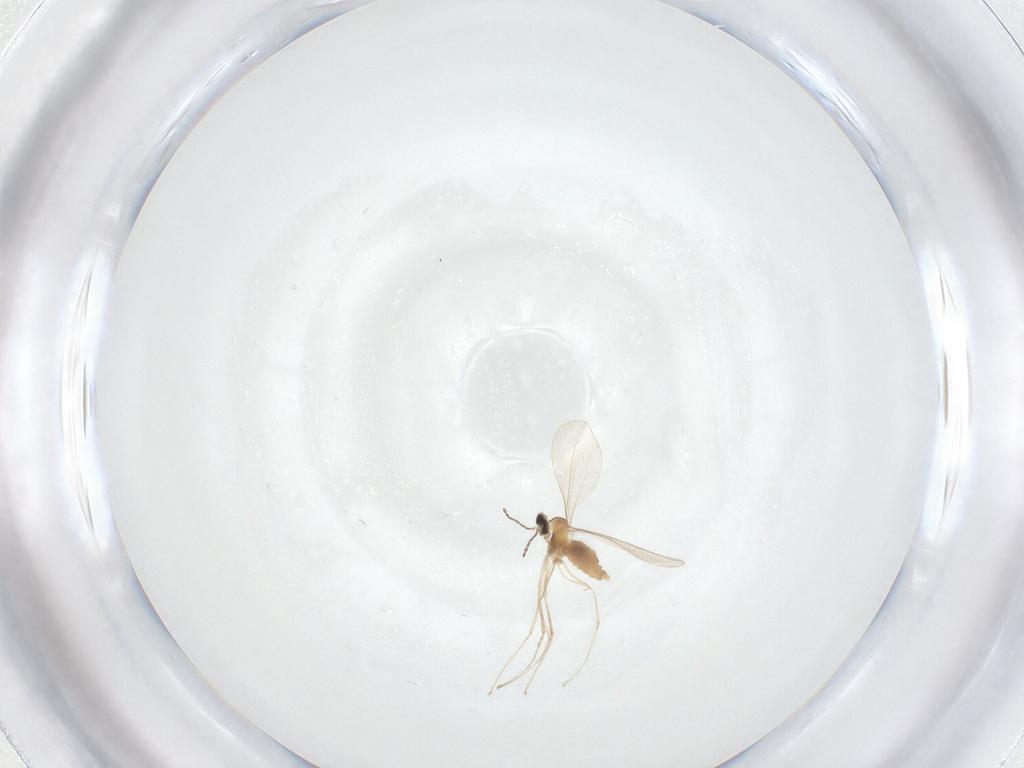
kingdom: Animalia
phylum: Arthropoda
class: Insecta
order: Diptera
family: Cecidomyiidae
